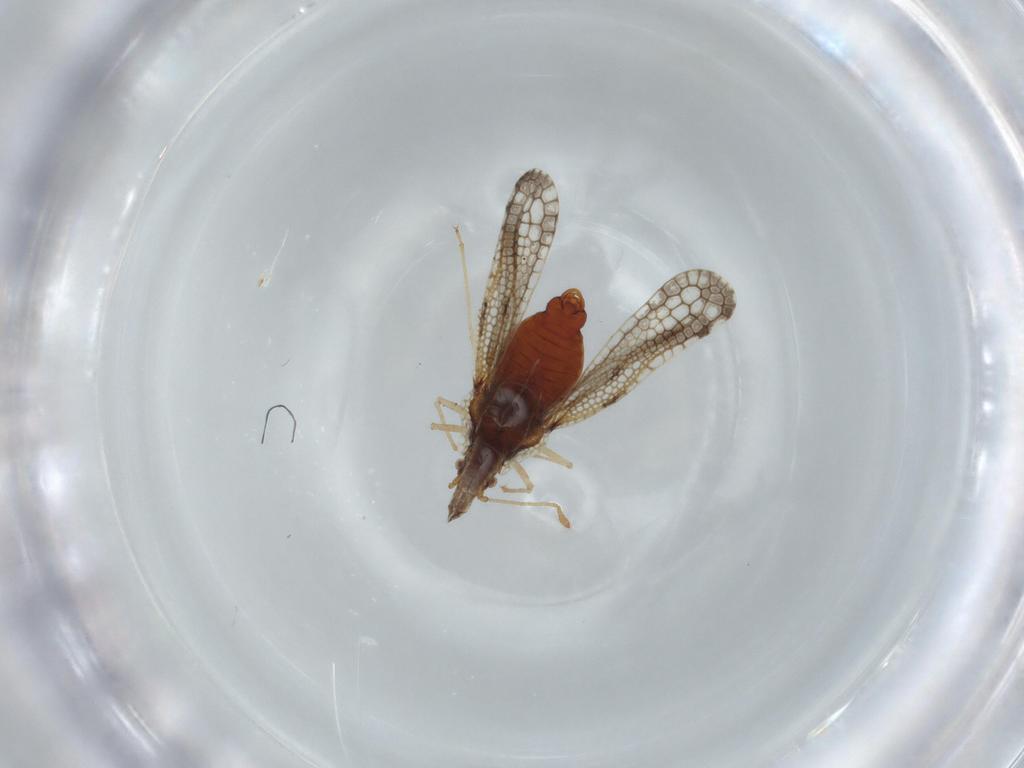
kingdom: Animalia
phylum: Arthropoda
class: Insecta
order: Hemiptera
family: Tingidae
